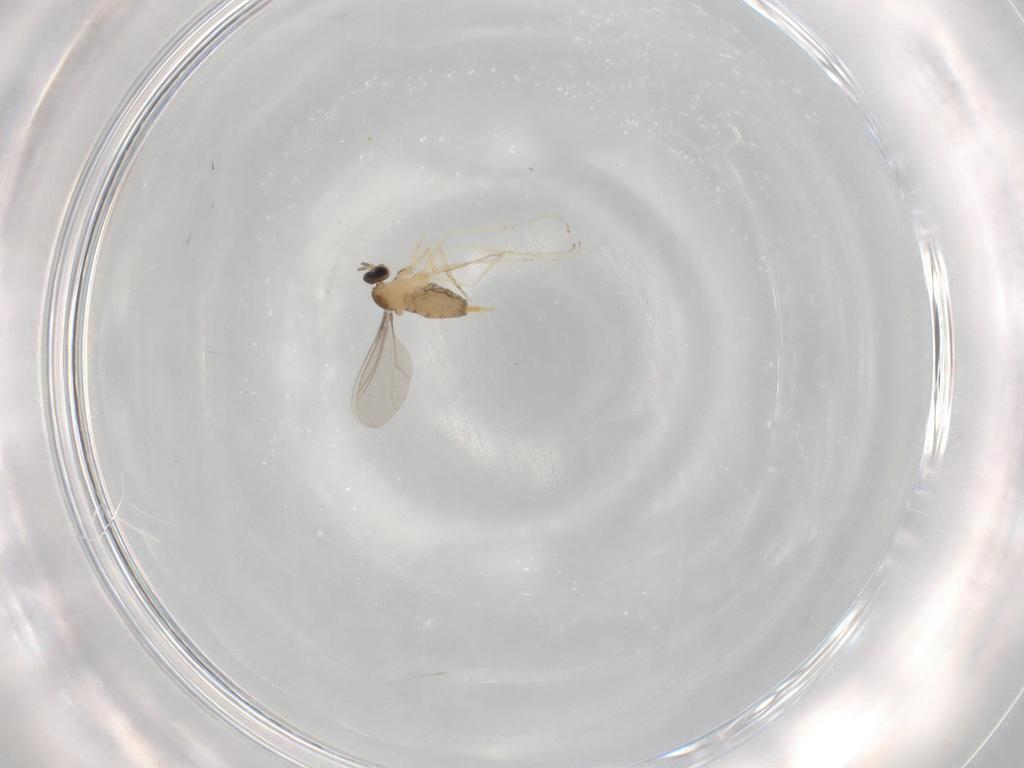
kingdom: Animalia
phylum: Arthropoda
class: Insecta
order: Diptera
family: Cecidomyiidae
